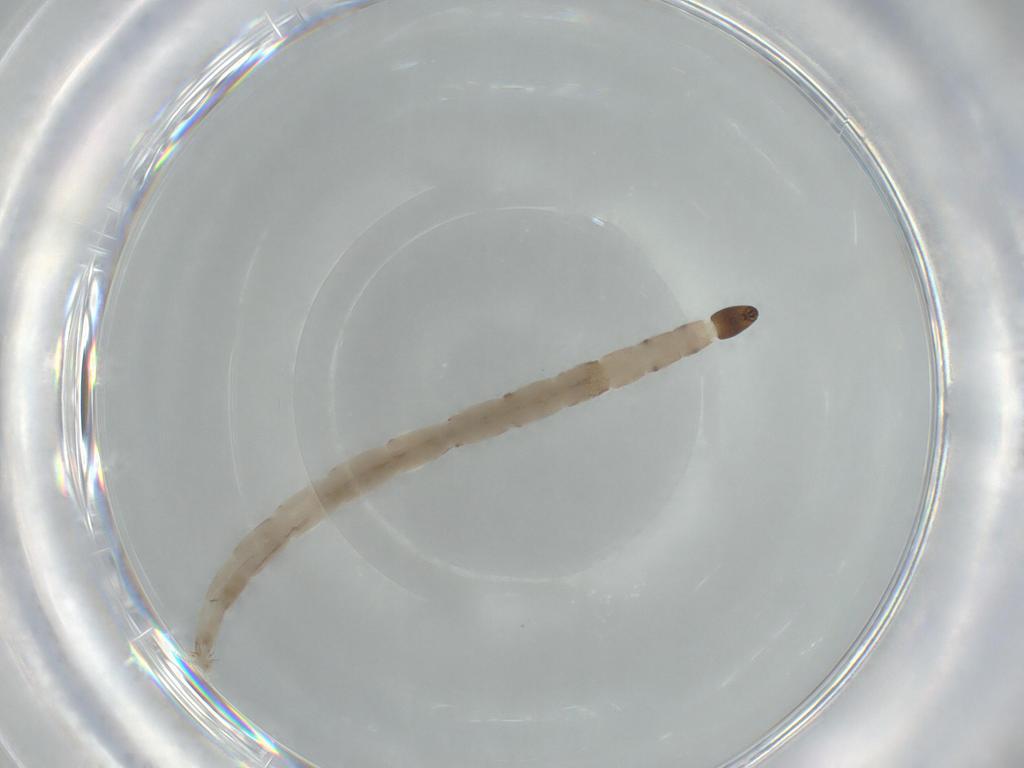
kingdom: Animalia
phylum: Arthropoda
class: Insecta
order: Diptera
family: Ceratopogonidae
